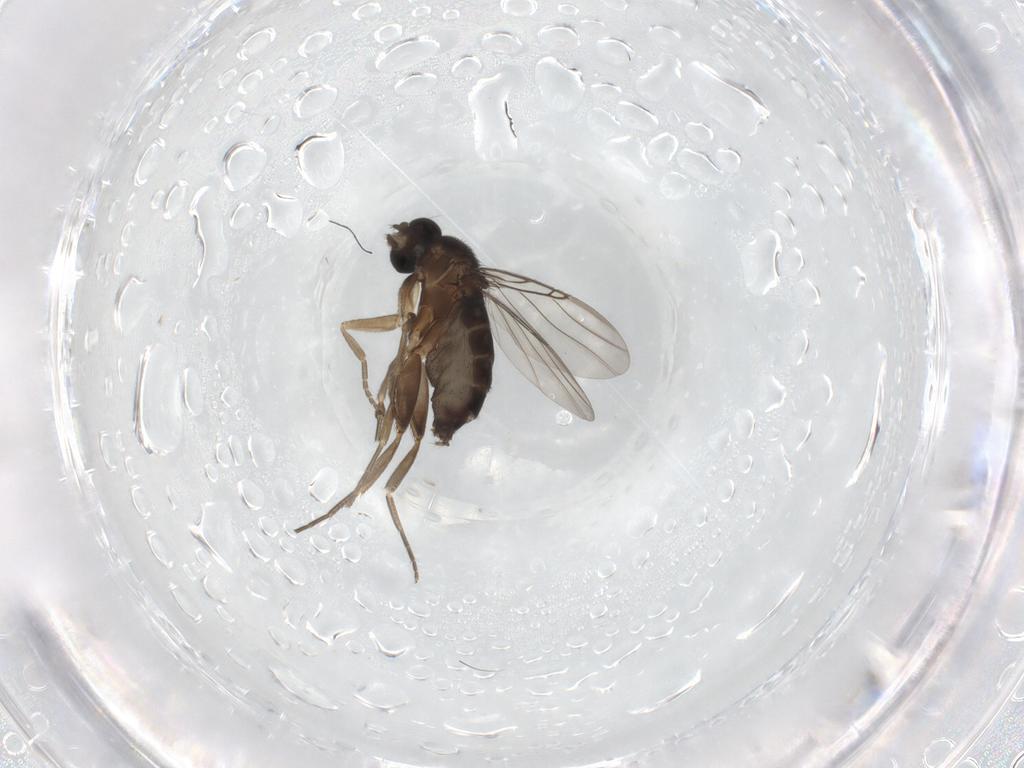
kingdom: Animalia
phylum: Arthropoda
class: Insecta
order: Diptera
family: Phoridae
